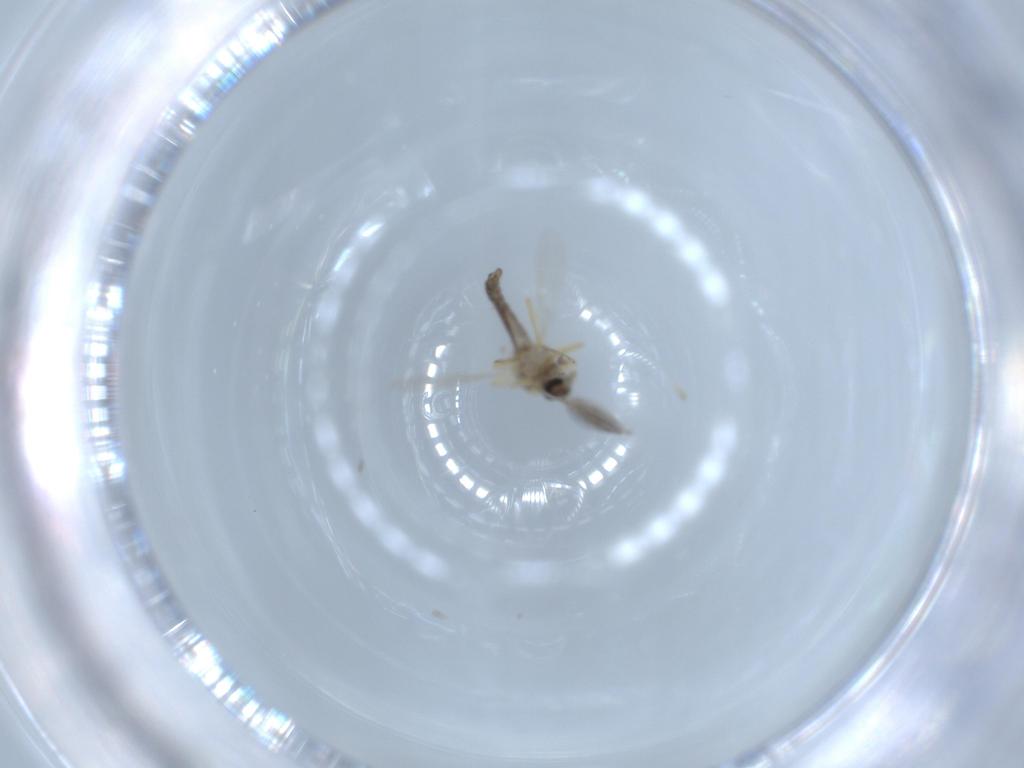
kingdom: Animalia
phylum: Arthropoda
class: Insecta
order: Diptera
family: Ceratopogonidae
